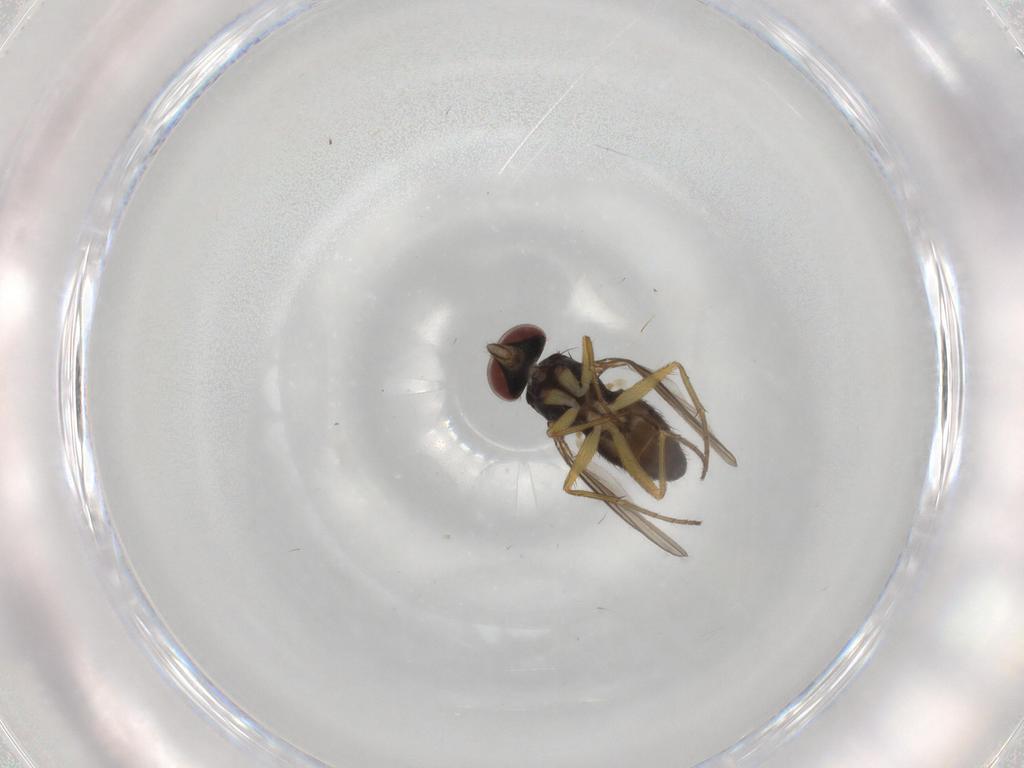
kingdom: Animalia
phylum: Arthropoda
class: Insecta
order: Diptera
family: Dolichopodidae
